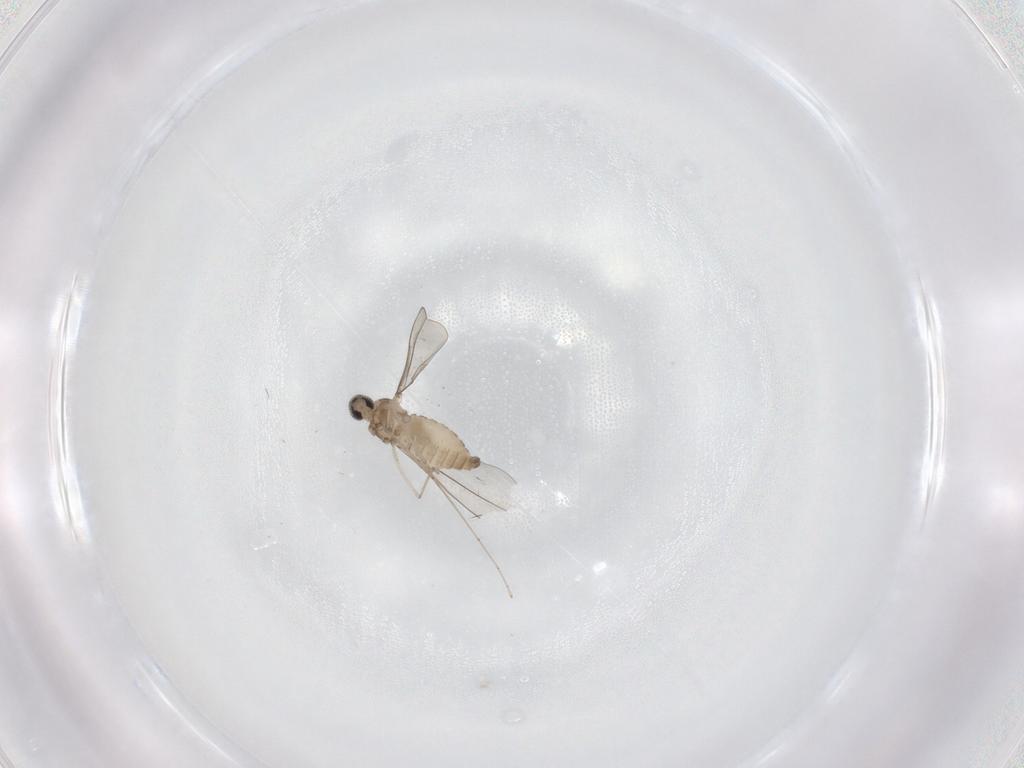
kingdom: Animalia
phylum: Arthropoda
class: Insecta
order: Diptera
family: Cecidomyiidae
